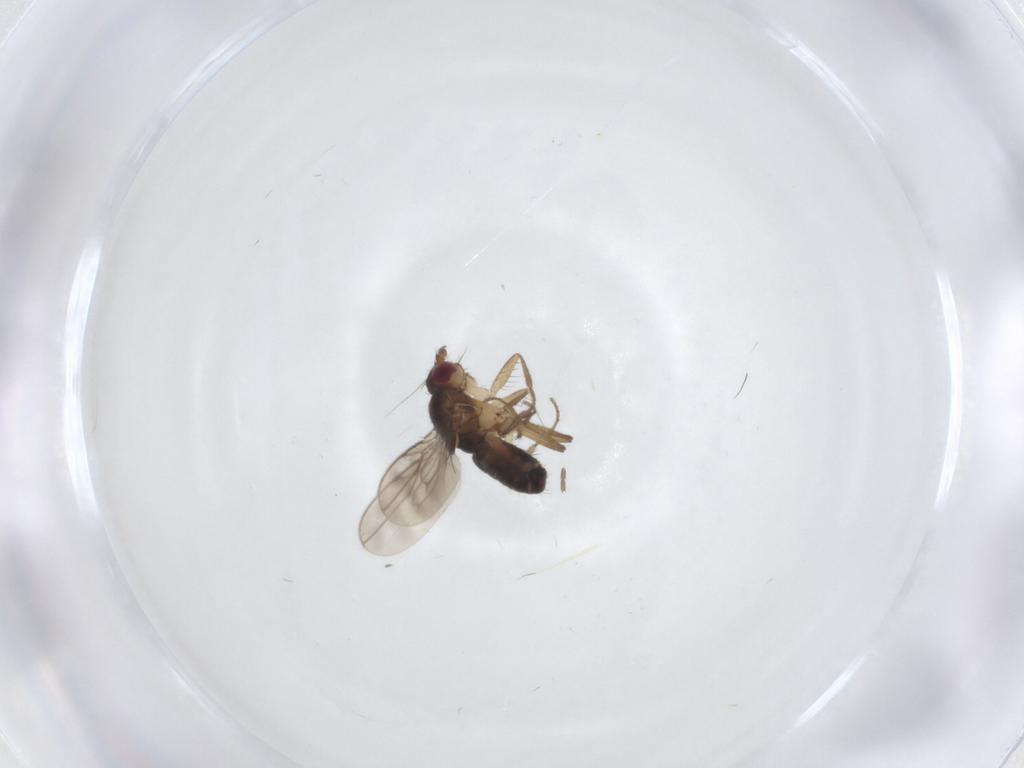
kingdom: Animalia
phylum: Arthropoda
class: Insecta
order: Diptera
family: Sphaeroceridae
